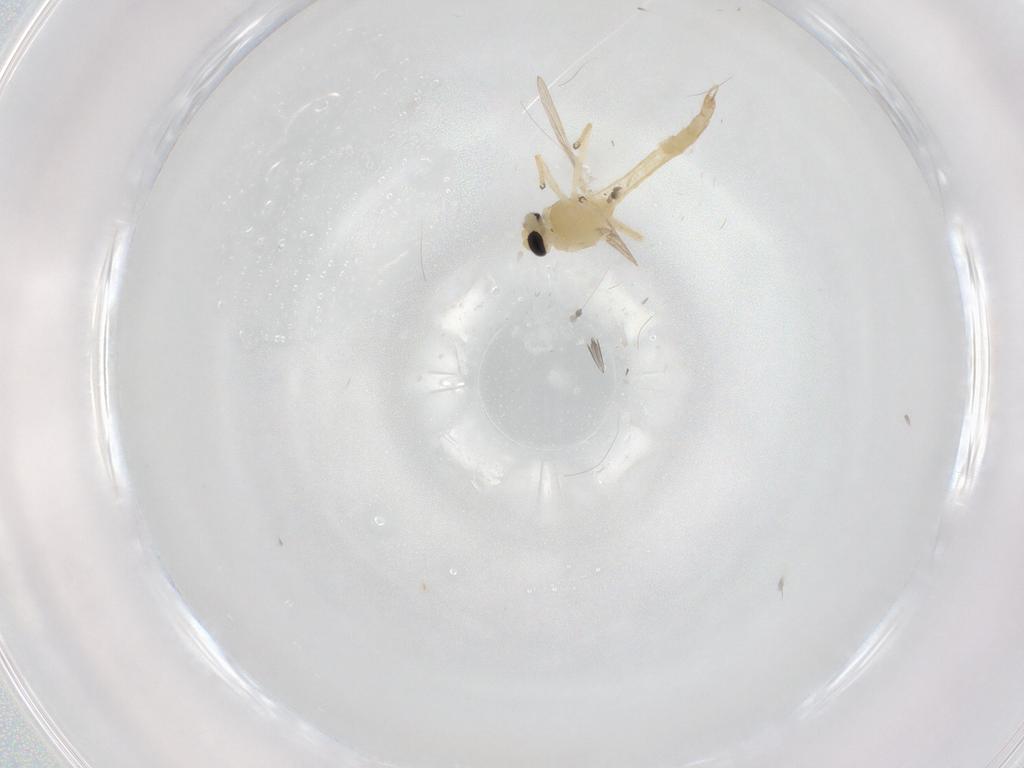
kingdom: Animalia
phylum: Arthropoda
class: Insecta
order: Diptera
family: Chironomidae
